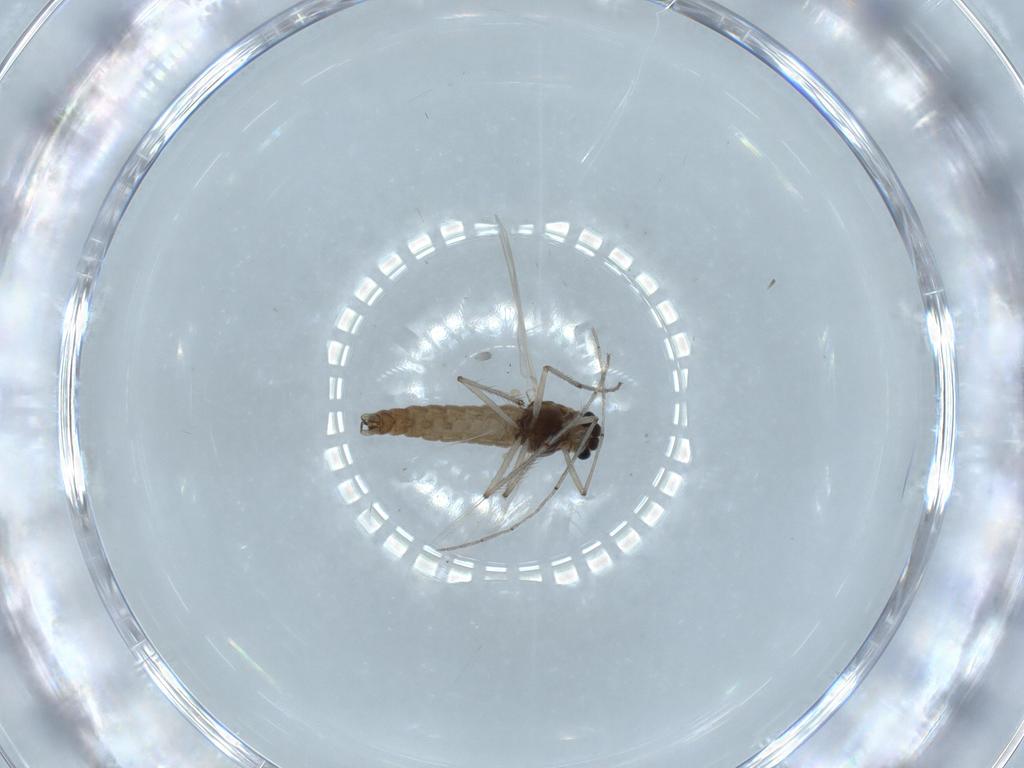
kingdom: Animalia
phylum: Arthropoda
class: Insecta
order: Diptera
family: Chironomidae
